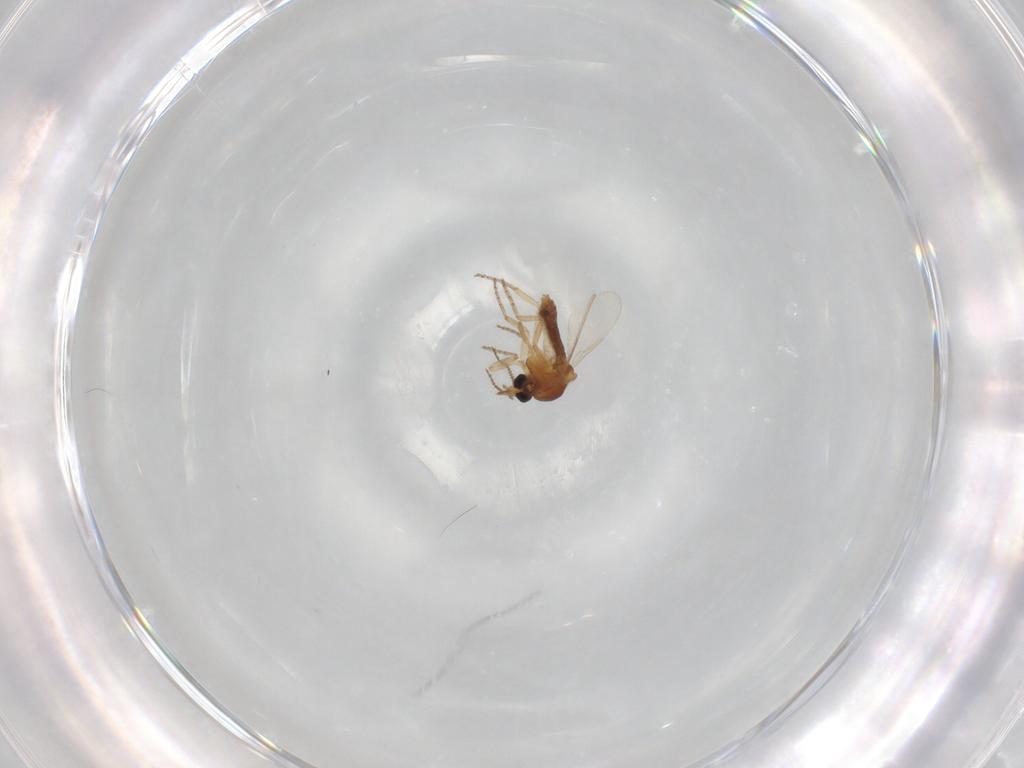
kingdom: Animalia
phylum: Arthropoda
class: Insecta
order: Diptera
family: Ceratopogonidae
